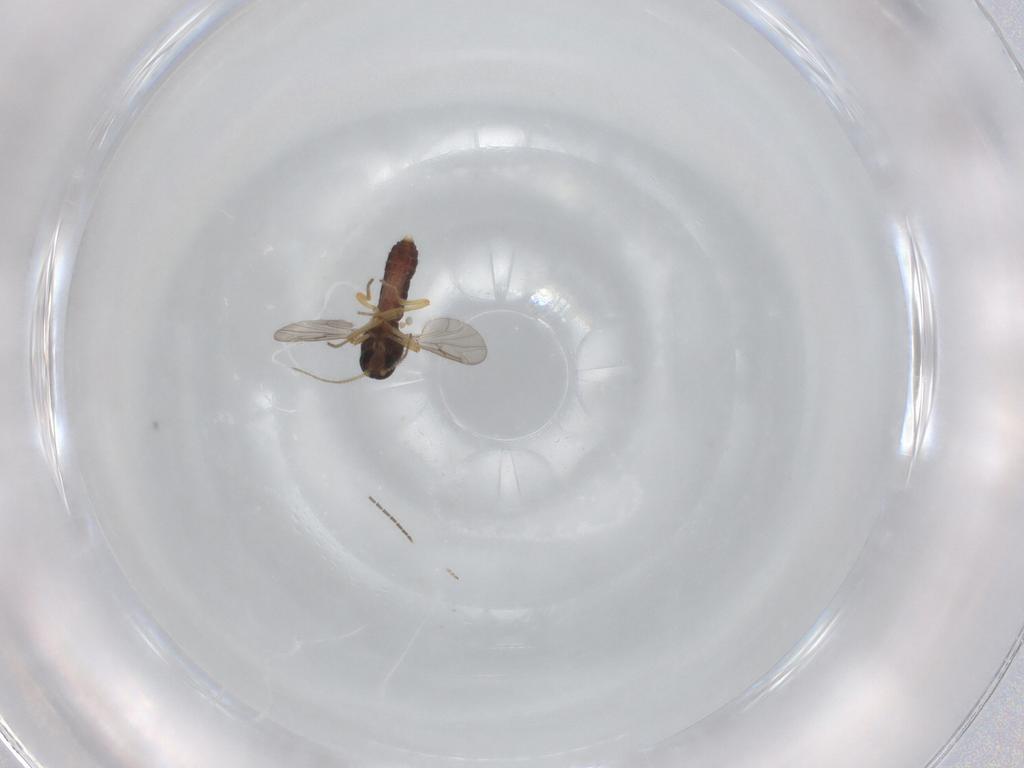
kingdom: Animalia
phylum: Arthropoda
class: Insecta
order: Diptera
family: Ceratopogonidae
